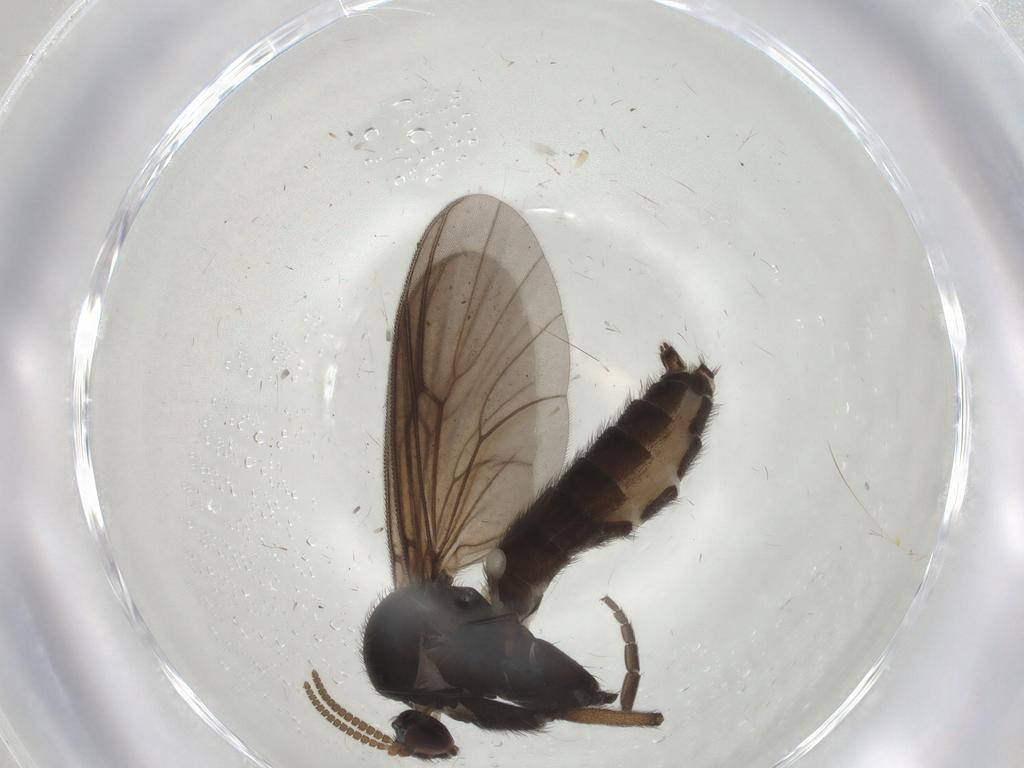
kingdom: Animalia
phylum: Arthropoda
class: Insecta
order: Diptera
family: Mycetophilidae
